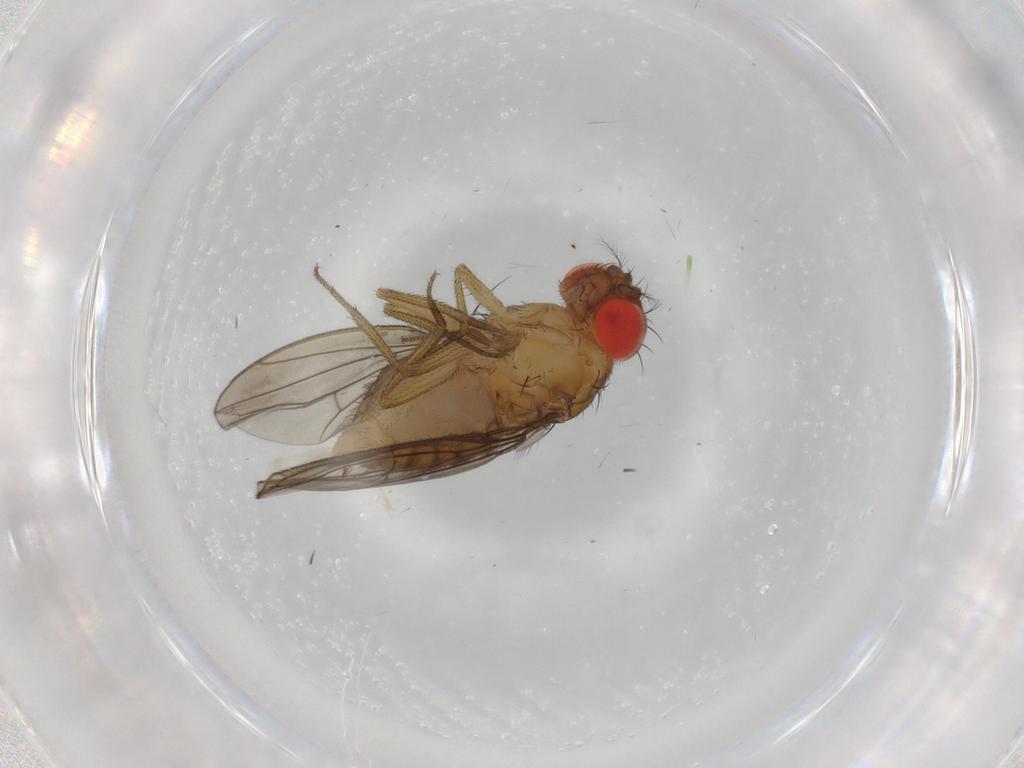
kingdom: Animalia
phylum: Arthropoda
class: Insecta
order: Diptera
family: Drosophilidae
